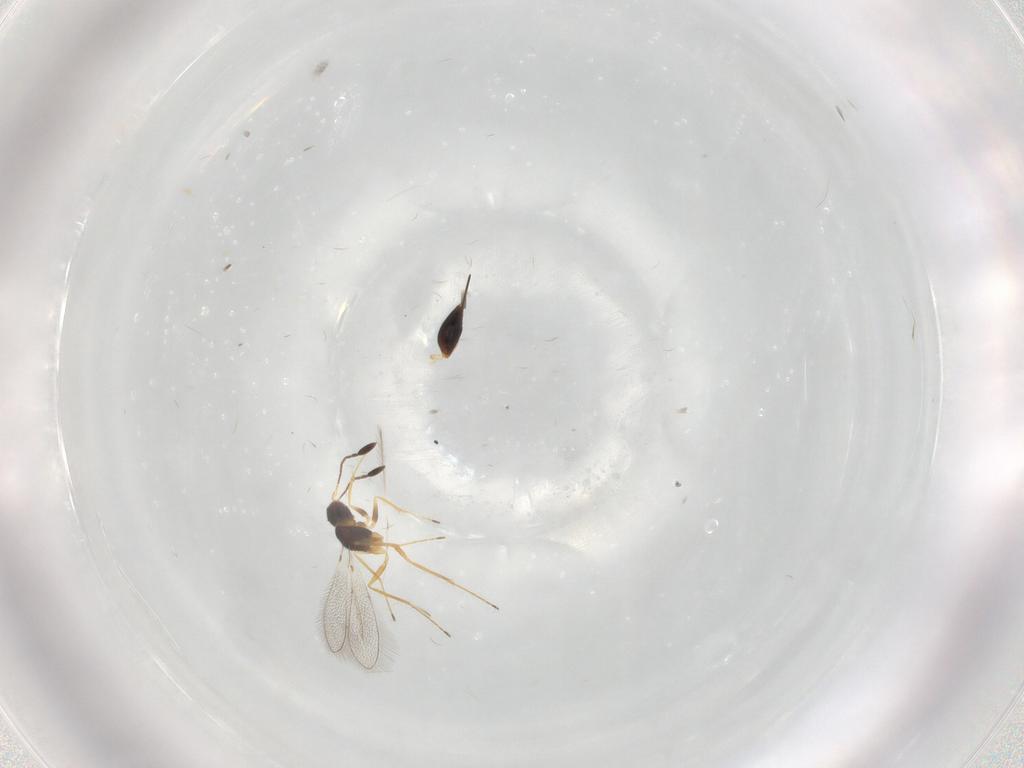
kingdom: Animalia
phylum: Arthropoda
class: Insecta
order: Hymenoptera
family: Mymaridae
